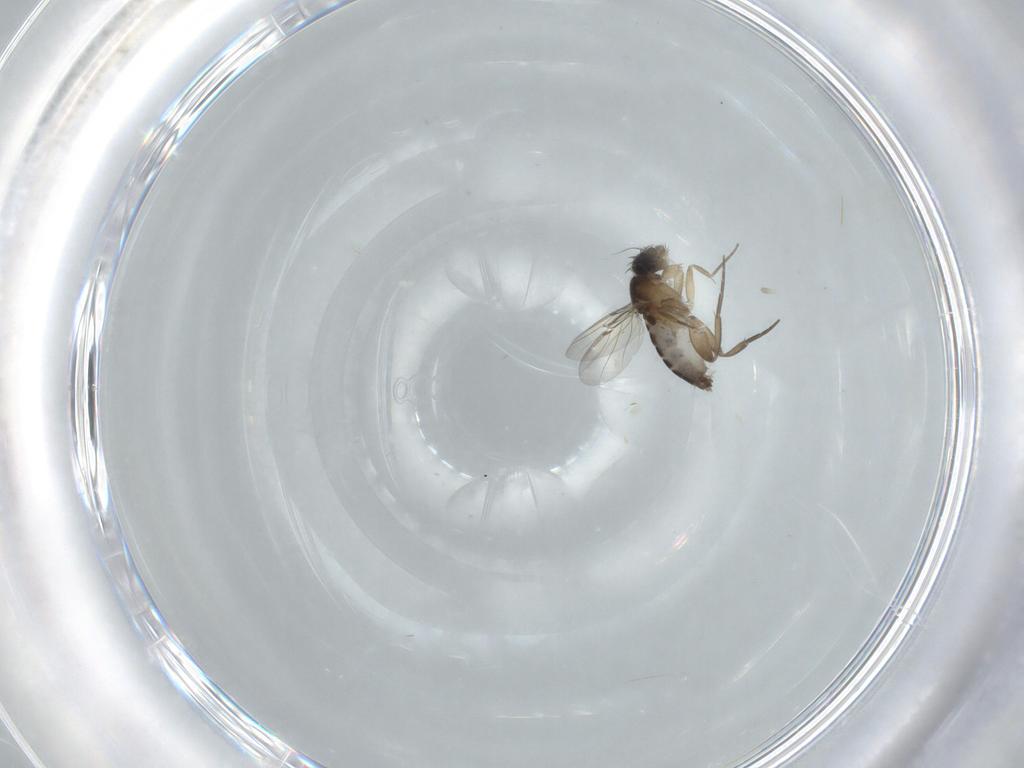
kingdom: Animalia
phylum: Arthropoda
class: Insecta
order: Diptera
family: Phoridae
